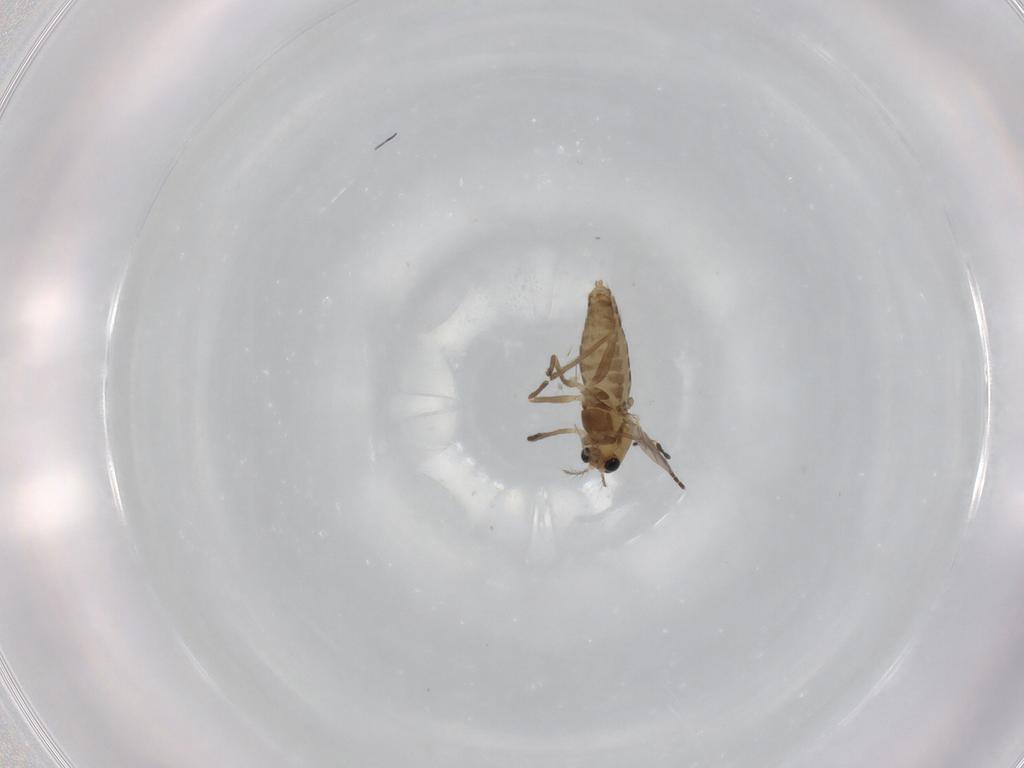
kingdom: Animalia
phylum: Arthropoda
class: Insecta
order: Diptera
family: Chironomidae
